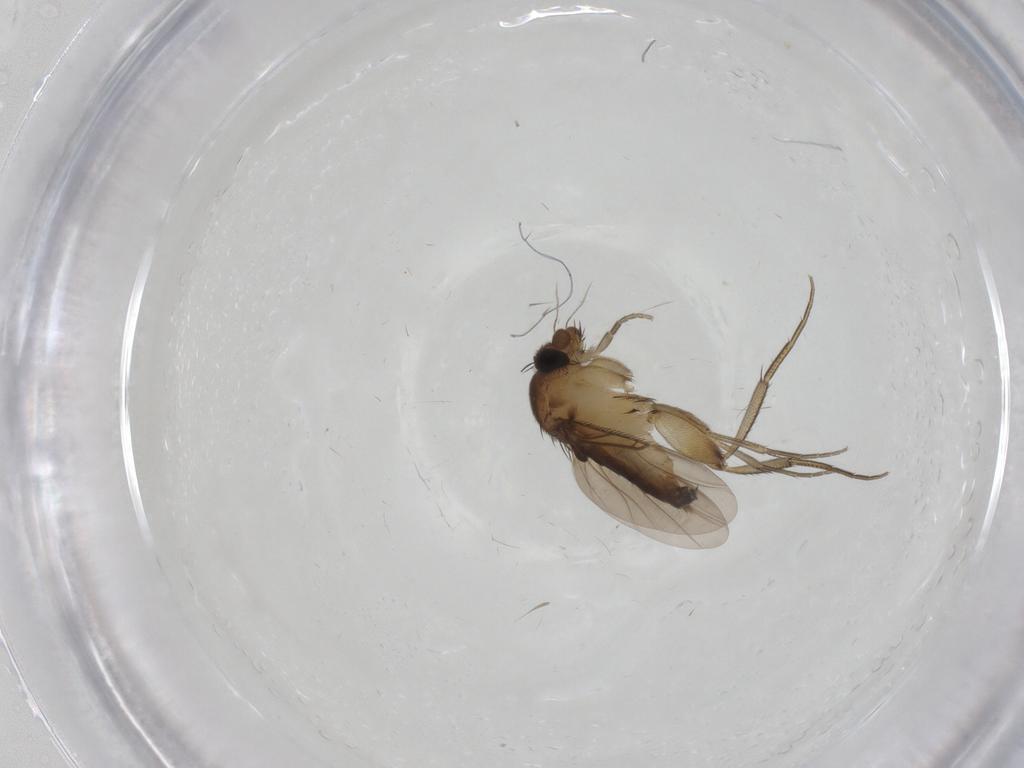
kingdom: Animalia
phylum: Arthropoda
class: Insecta
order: Diptera
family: Phoridae
